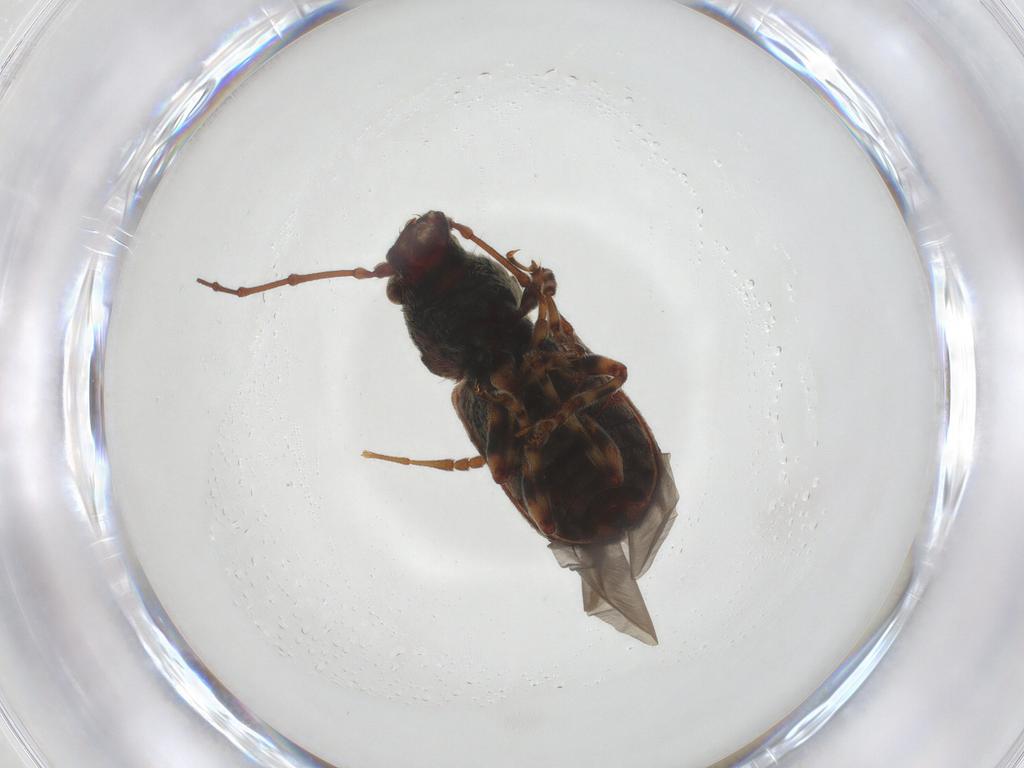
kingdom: Animalia
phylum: Arthropoda
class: Insecta
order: Coleoptera
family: Anthribidae
